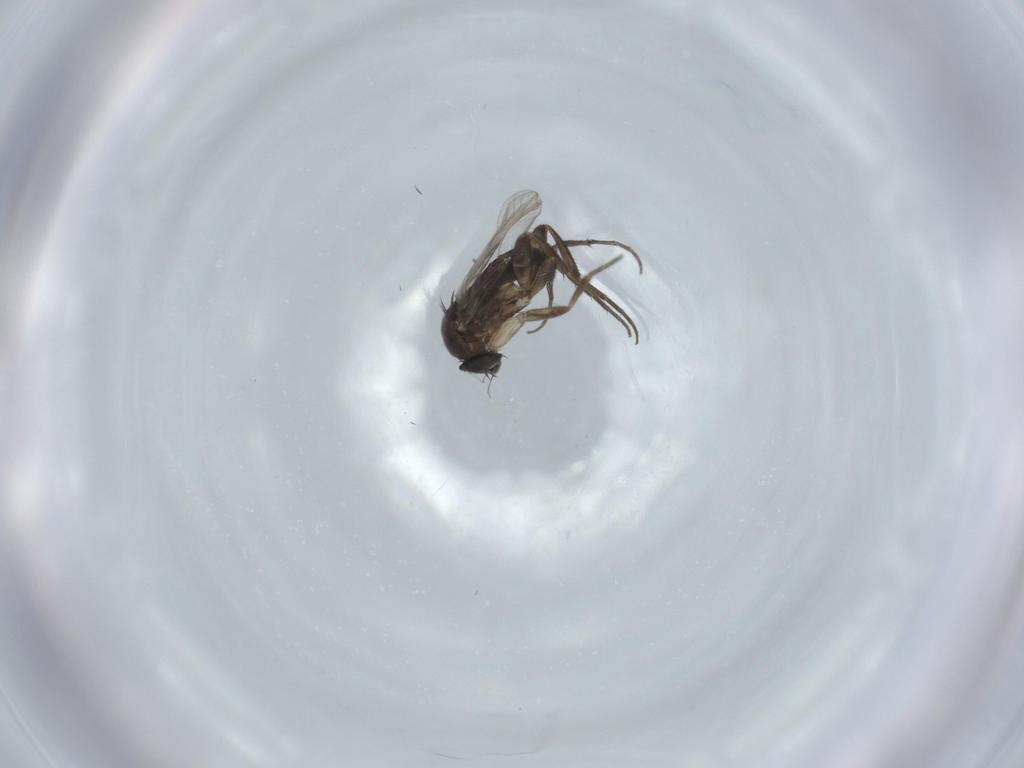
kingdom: Animalia
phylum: Arthropoda
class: Insecta
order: Diptera
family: Phoridae
